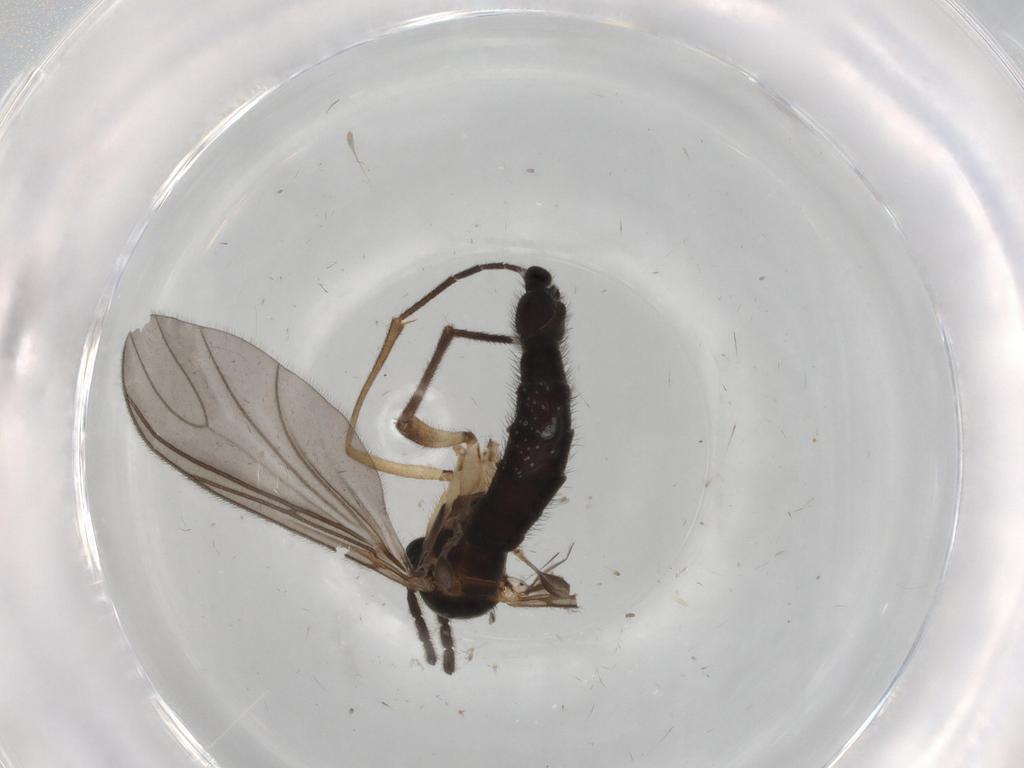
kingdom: Animalia
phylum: Arthropoda
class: Insecta
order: Diptera
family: Sciaridae
